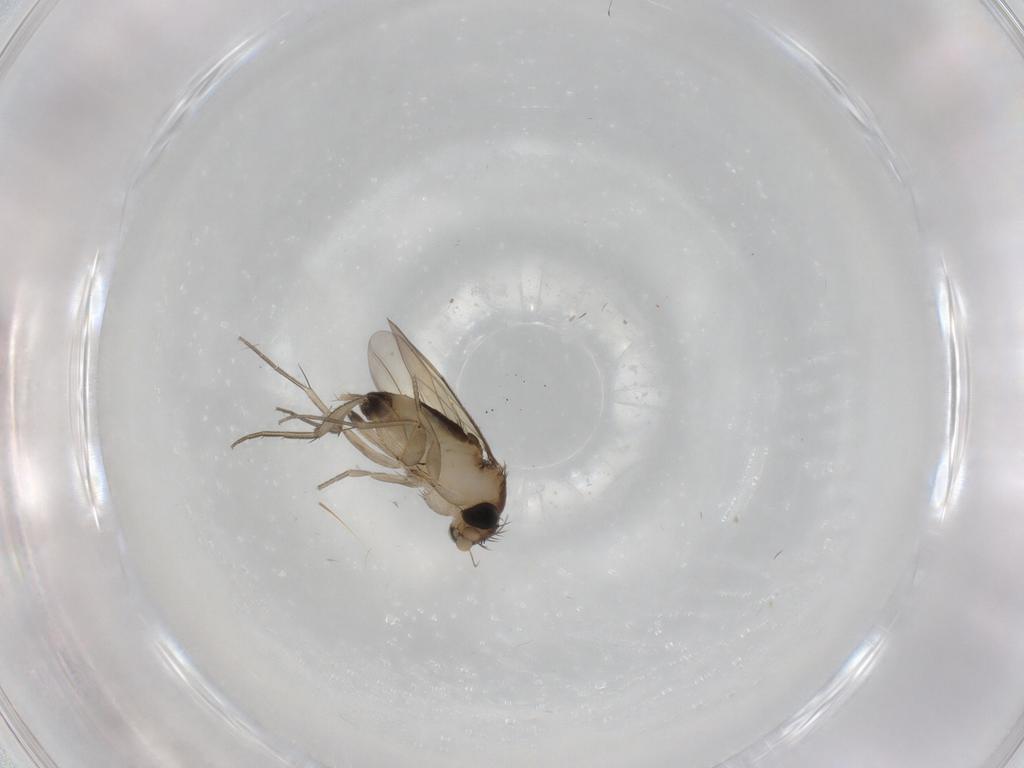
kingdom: Animalia
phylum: Arthropoda
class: Insecta
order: Diptera
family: Phoridae
